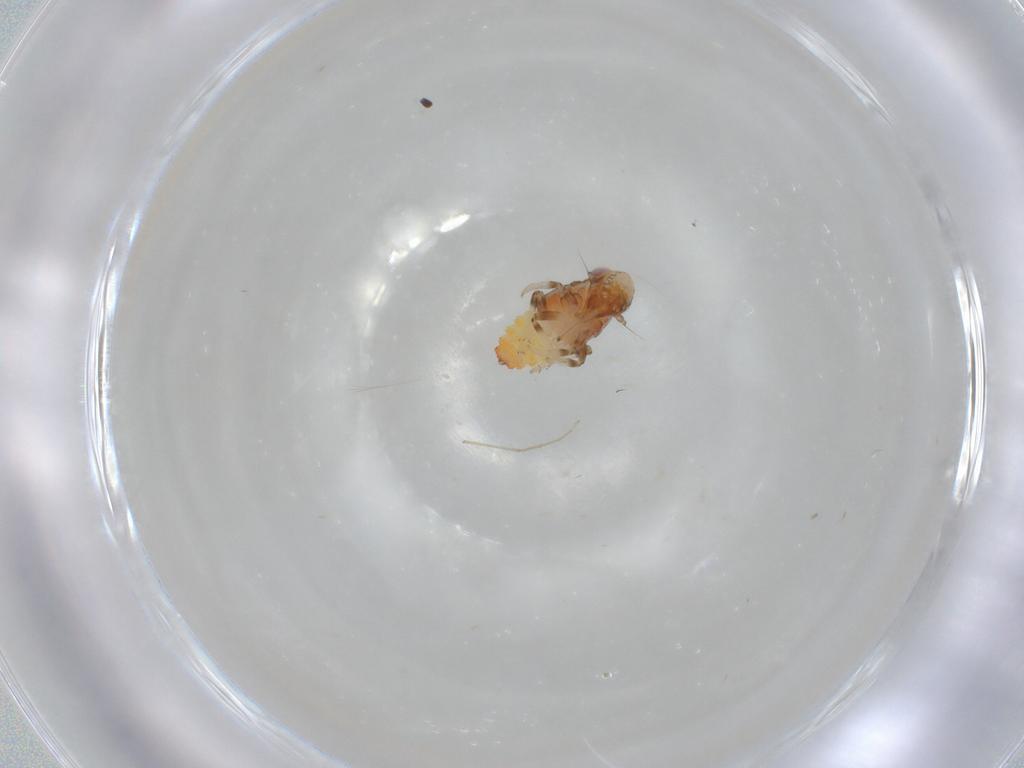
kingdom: Animalia
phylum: Arthropoda
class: Insecta
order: Hemiptera
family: Issidae
